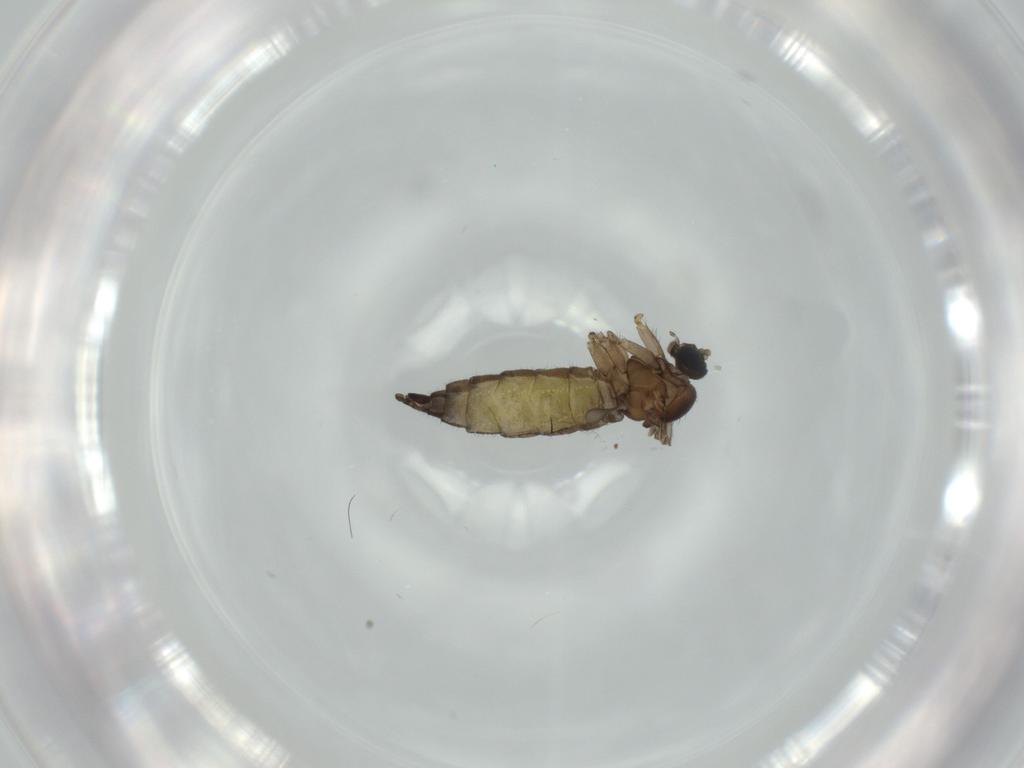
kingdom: Animalia
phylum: Arthropoda
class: Insecta
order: Diptera
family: Sciaridae
